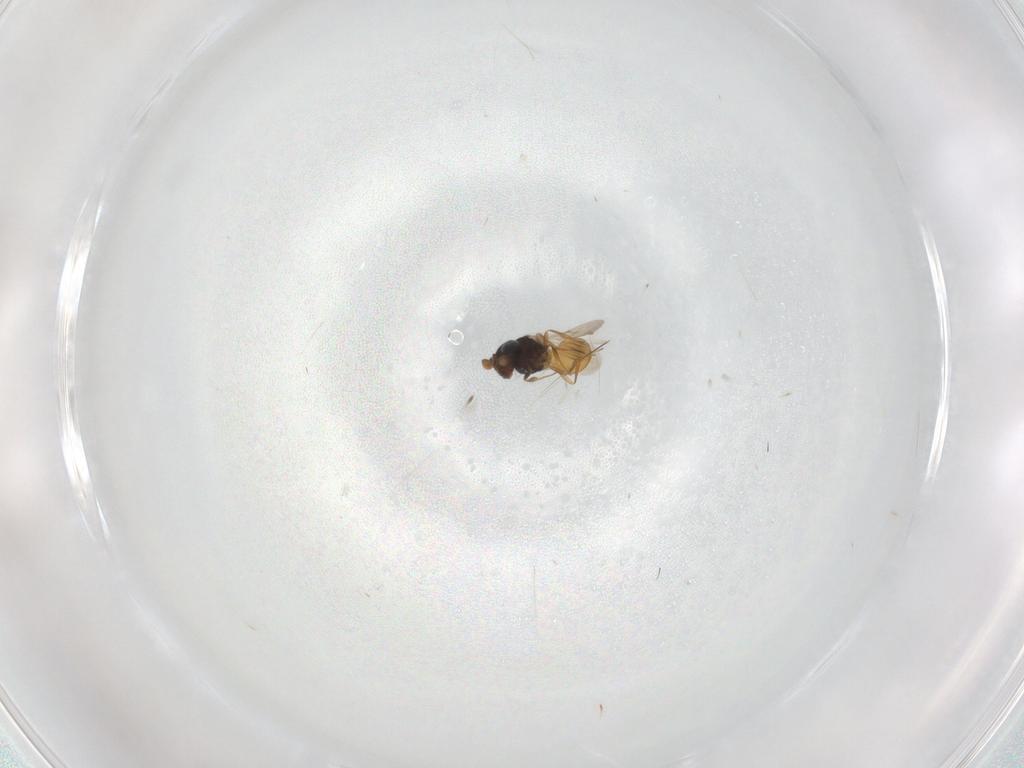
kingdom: Animalia
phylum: Arthropoda
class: Insecta
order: Hymenoptera
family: Scelionidae
